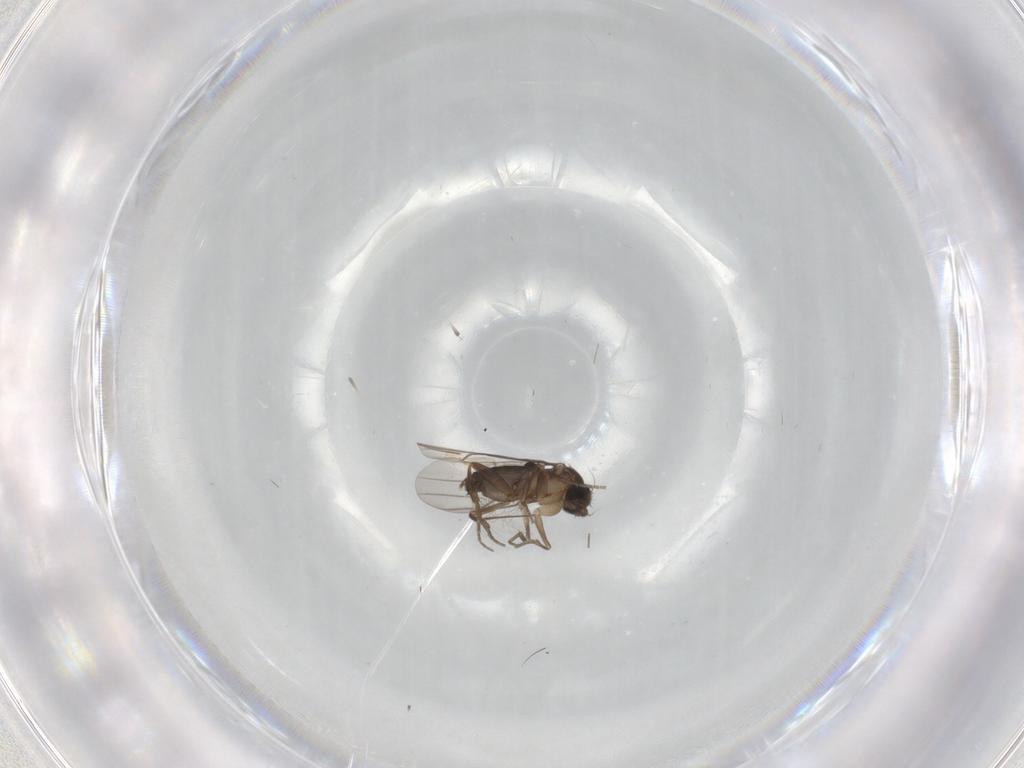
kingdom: Animalia
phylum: Arthropoda
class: Insecta
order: Diptera
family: Phoridae
